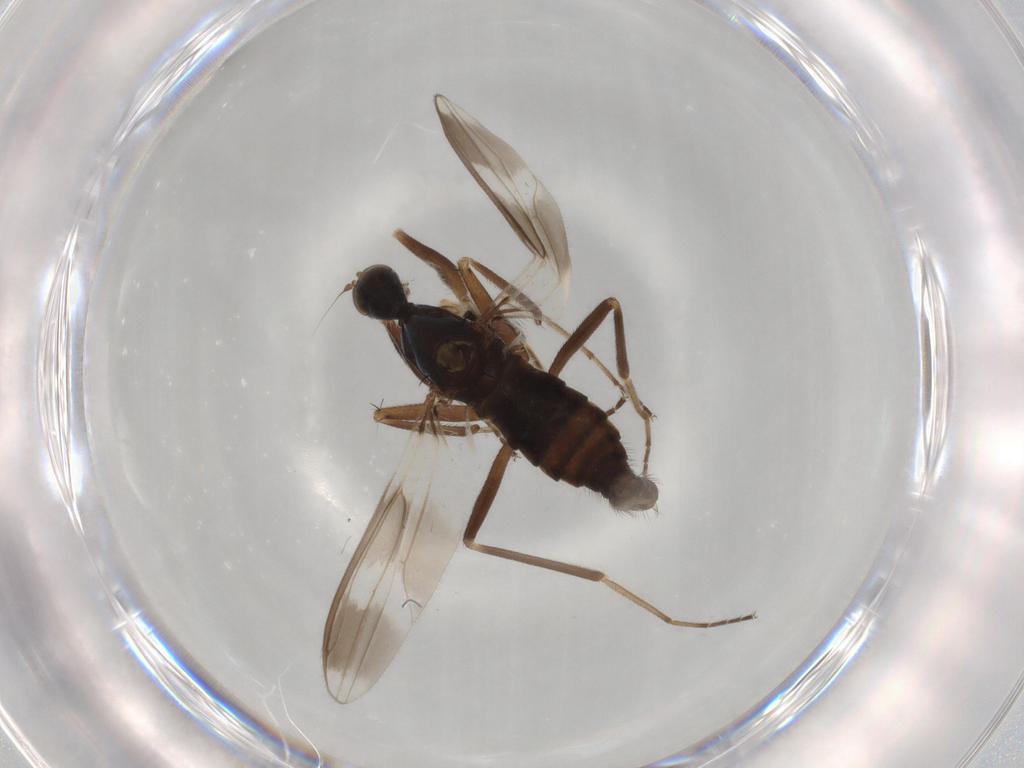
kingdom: Animalia
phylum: Arthropoda
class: Insecta
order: Diptera
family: Hybotidae
